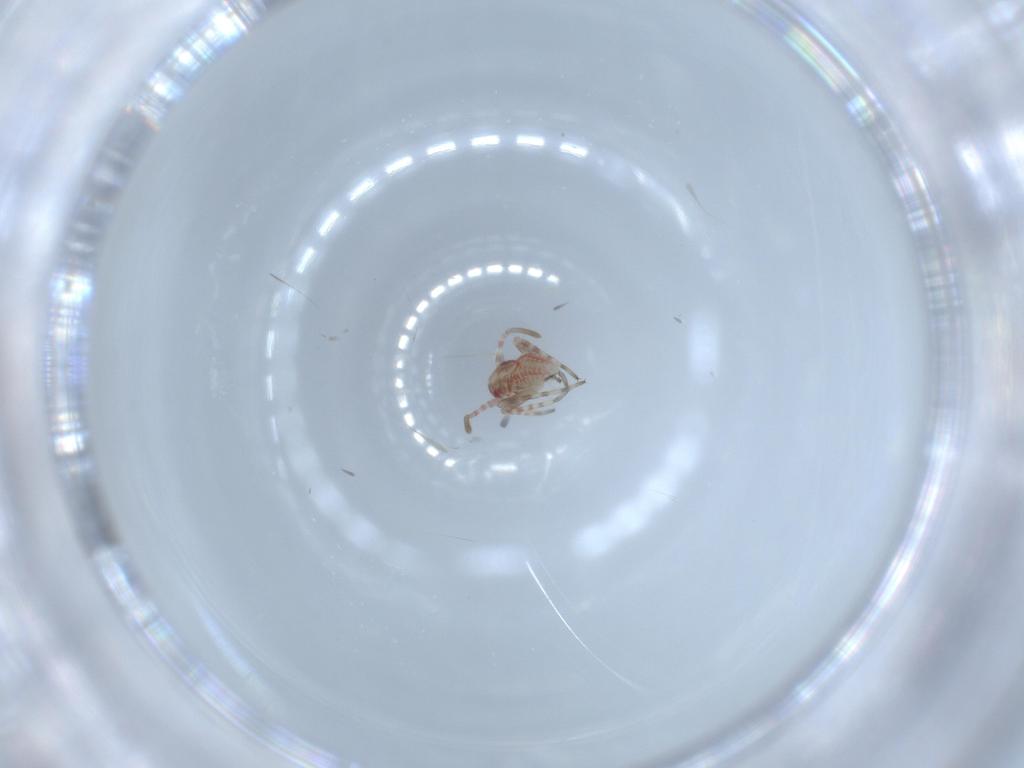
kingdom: Animalia
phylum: Arthropoda
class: Insecta
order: Hemiptera
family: Miridae
